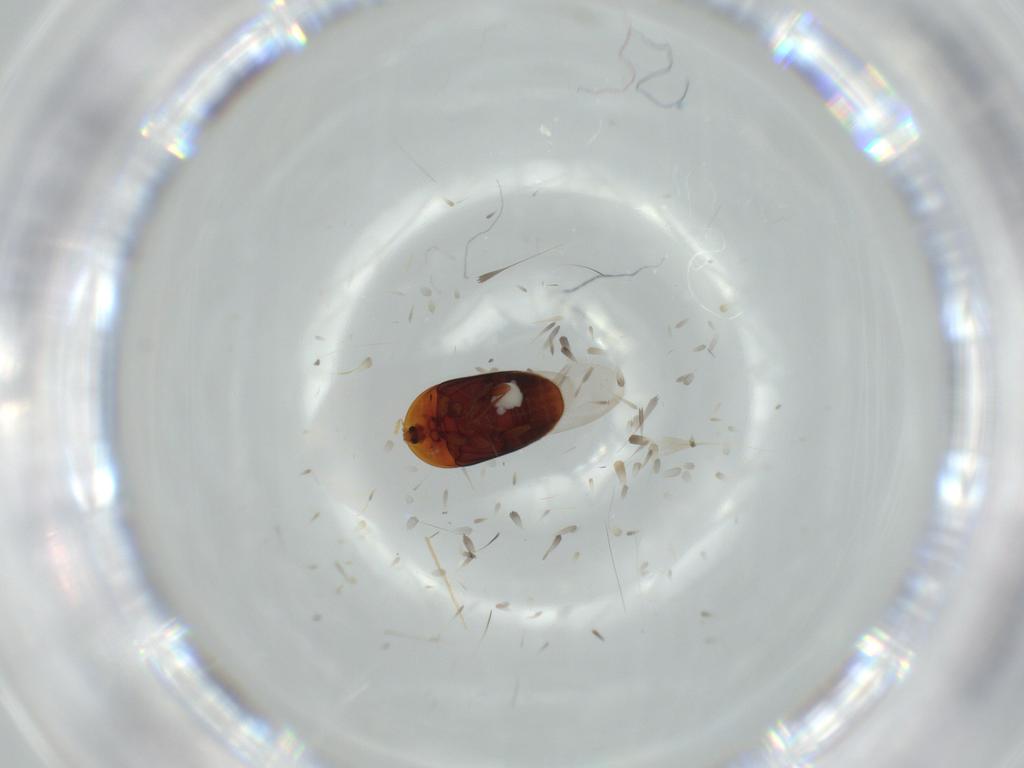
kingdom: Animalia
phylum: Arthropoda
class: Insecta
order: Coleoptera
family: Corylophidae
